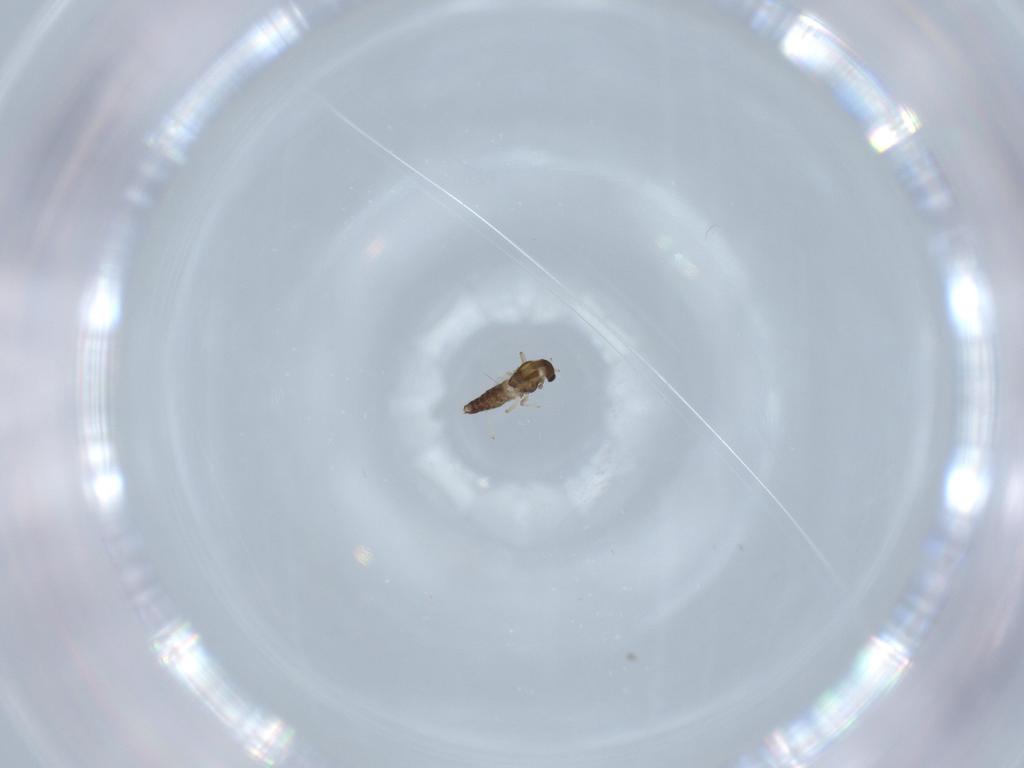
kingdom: Animalia
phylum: Arthropoda
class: Insecta
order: Diptera
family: Chironomidae
